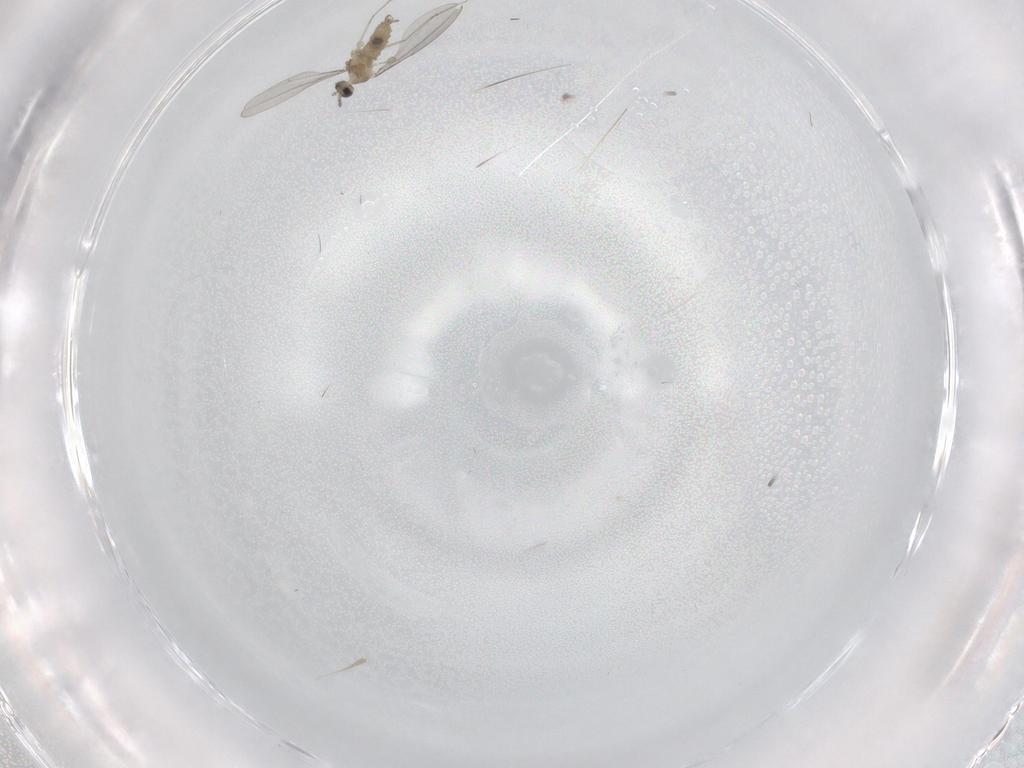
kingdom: Animalia
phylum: Arthropoda
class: Insecta
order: Diptera
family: Cecidomyiidae
